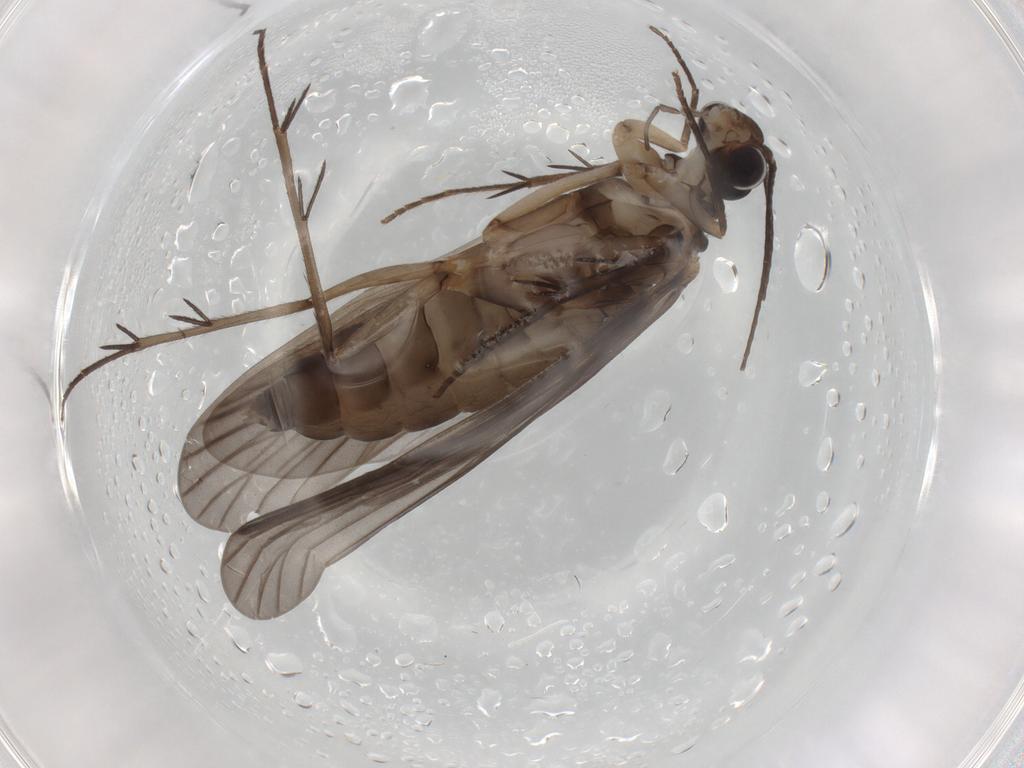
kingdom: Animalia
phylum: Arthropoda
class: Insecta
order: Trichoptera
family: Philopotamidae
